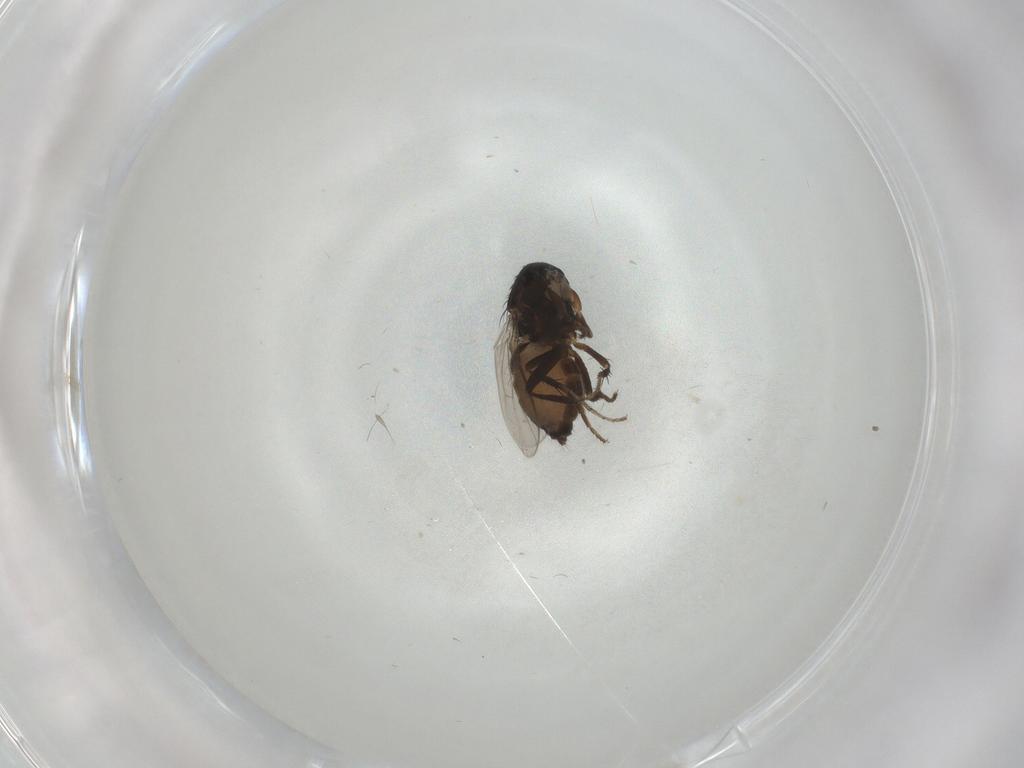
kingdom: Animalia
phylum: Arthropoda
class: Insecta
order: Diptera
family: Sphaeroceridae
